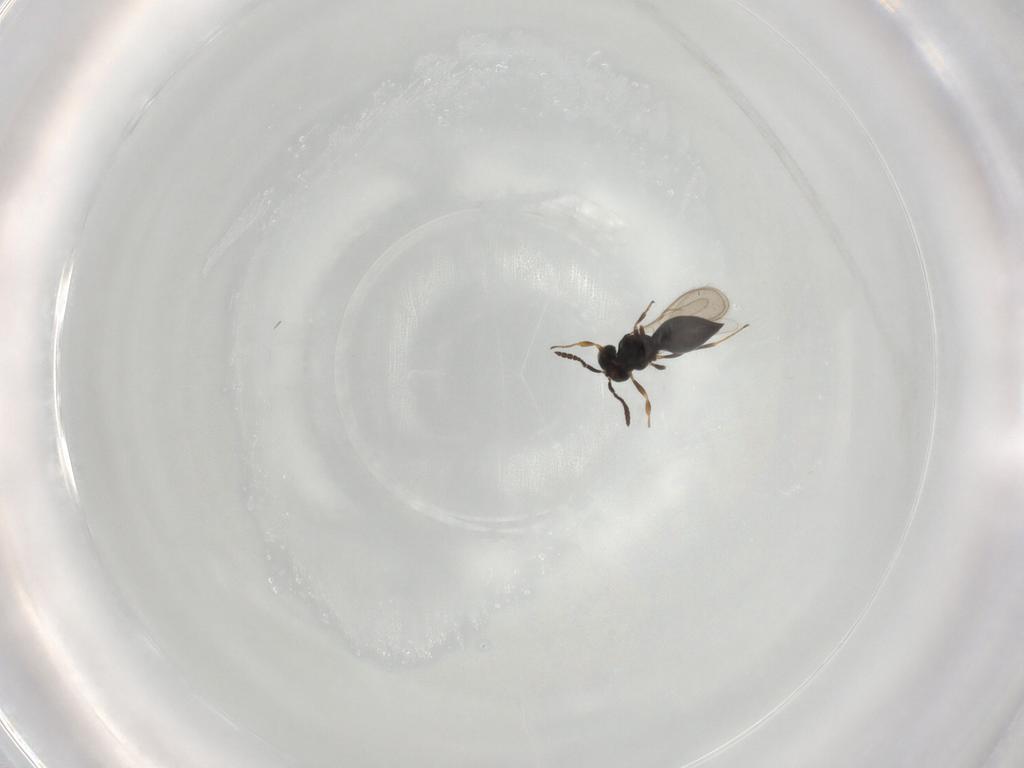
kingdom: Animalia
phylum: Arthropoda
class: Insecta
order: Hymenoptera
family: Scelionidae
